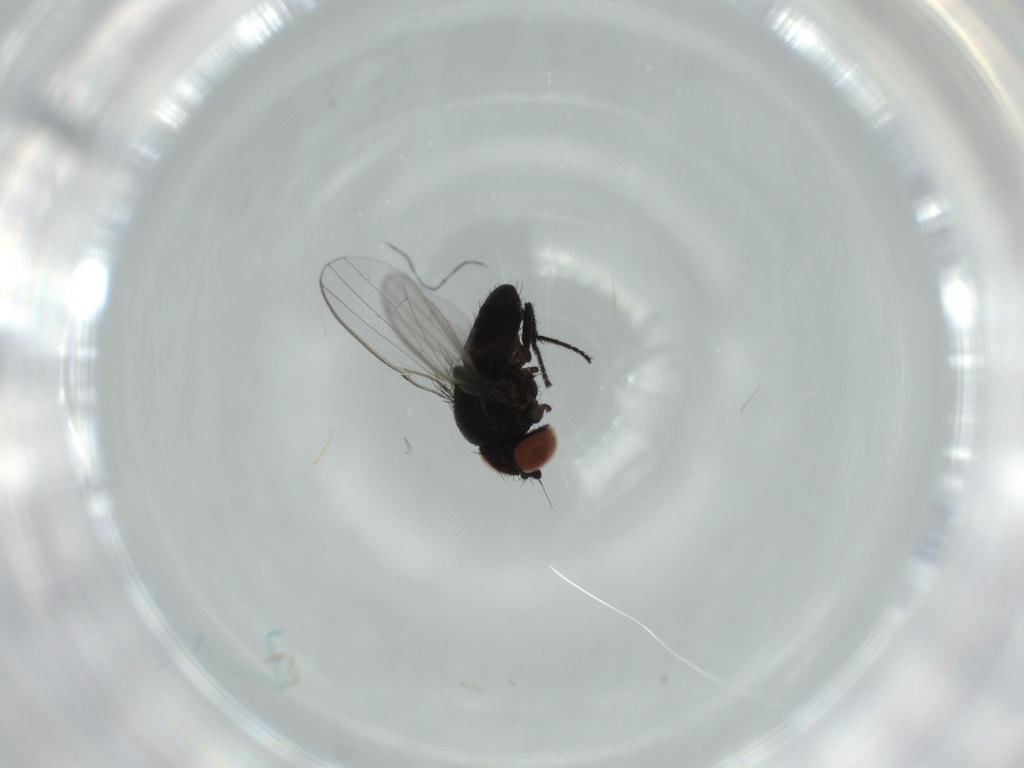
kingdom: Animalia
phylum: Arthropoda
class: Insecta
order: Diptera
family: Milichiidae
